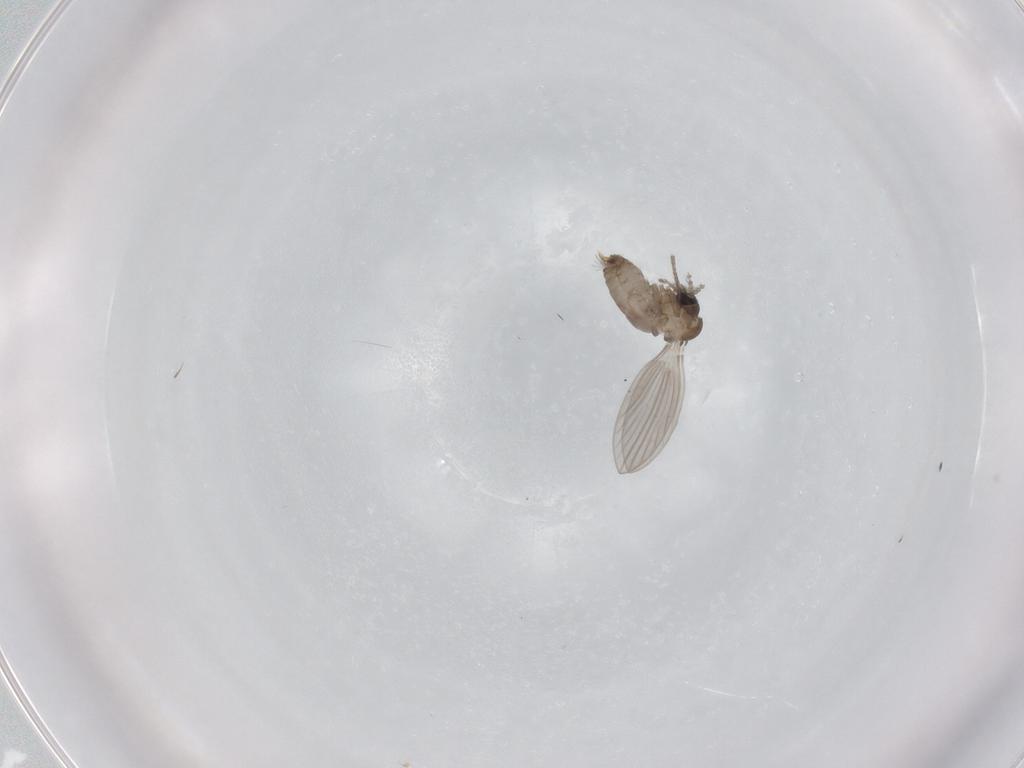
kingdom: Animalia
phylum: Arthropoda
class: Insecta
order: Diptera
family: Psychodidae
